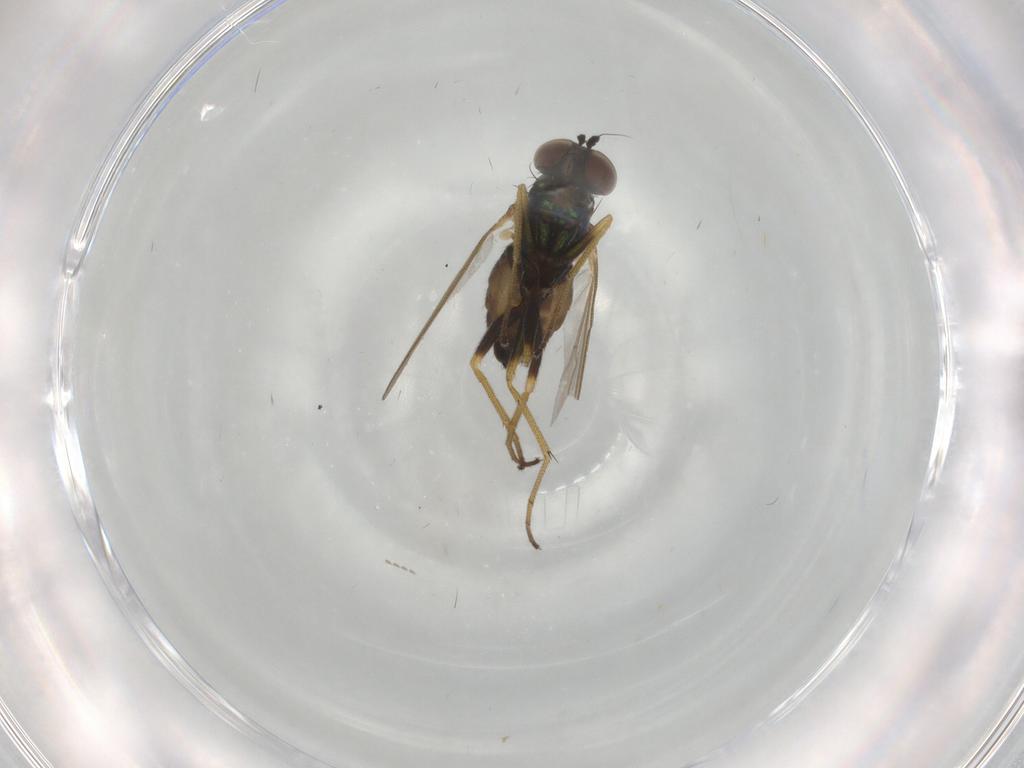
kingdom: Animalia
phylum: Arthropoda
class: Insecta
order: Diptera
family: Dolichopodidae
